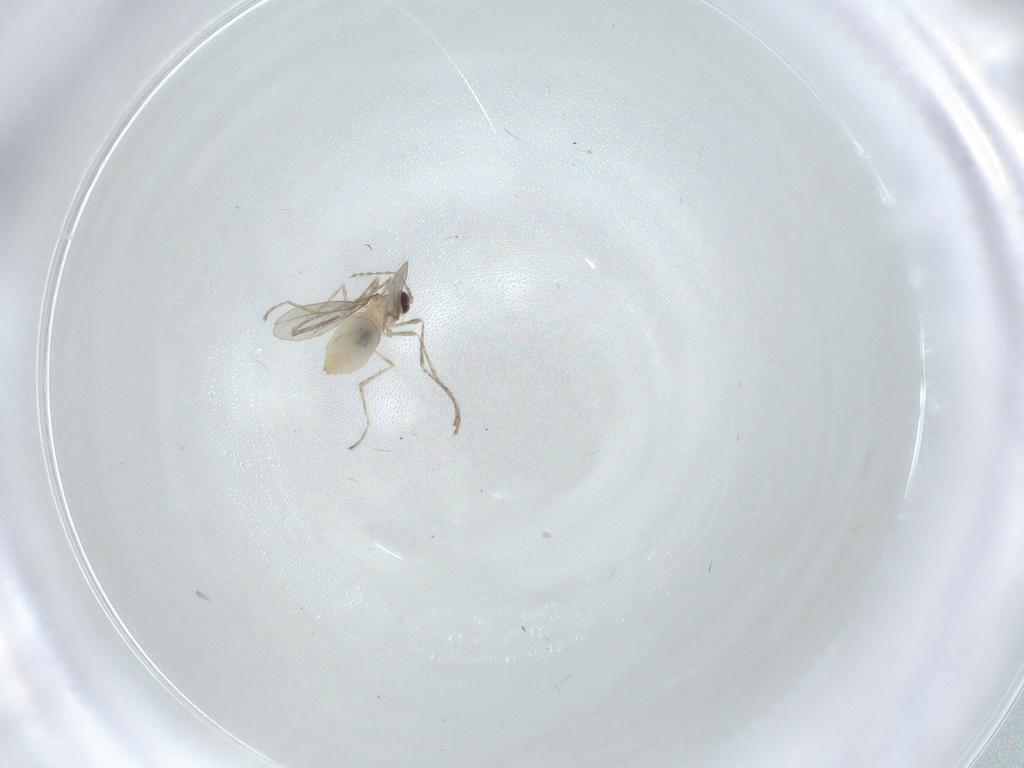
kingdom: Animalia
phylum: Arthropoda
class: Insecta
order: Diptera
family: Cecidomyiidae
